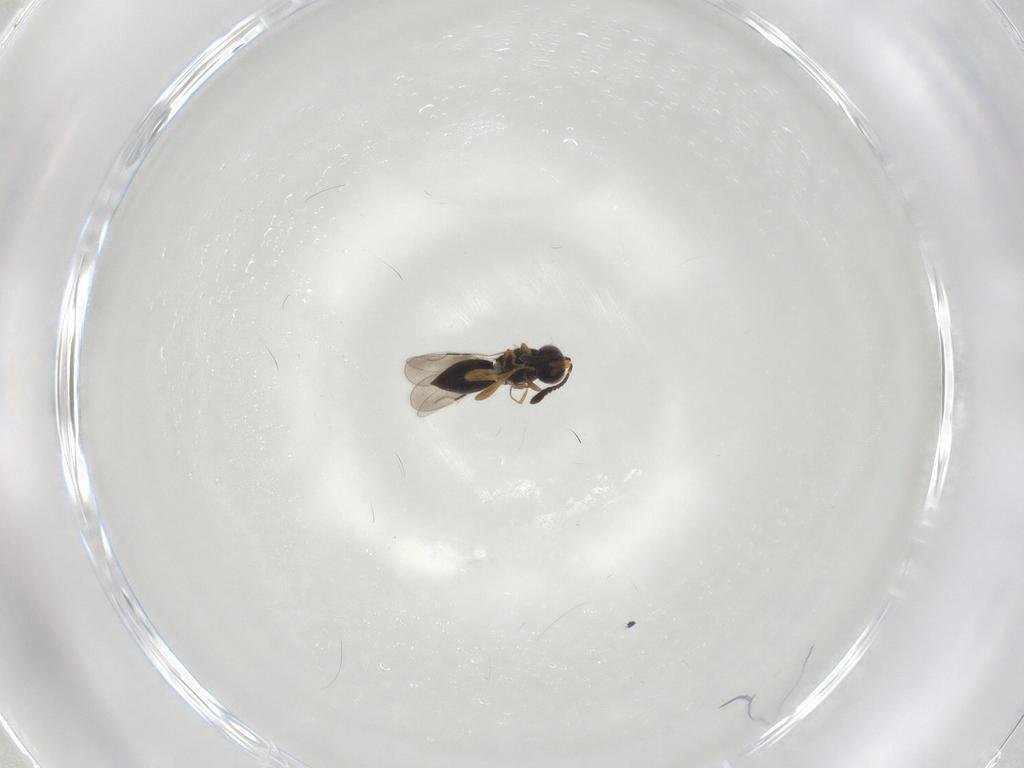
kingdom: Animalia
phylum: Arthropoda
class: Insecta
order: Hymenoptera
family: Ceraphronidae
